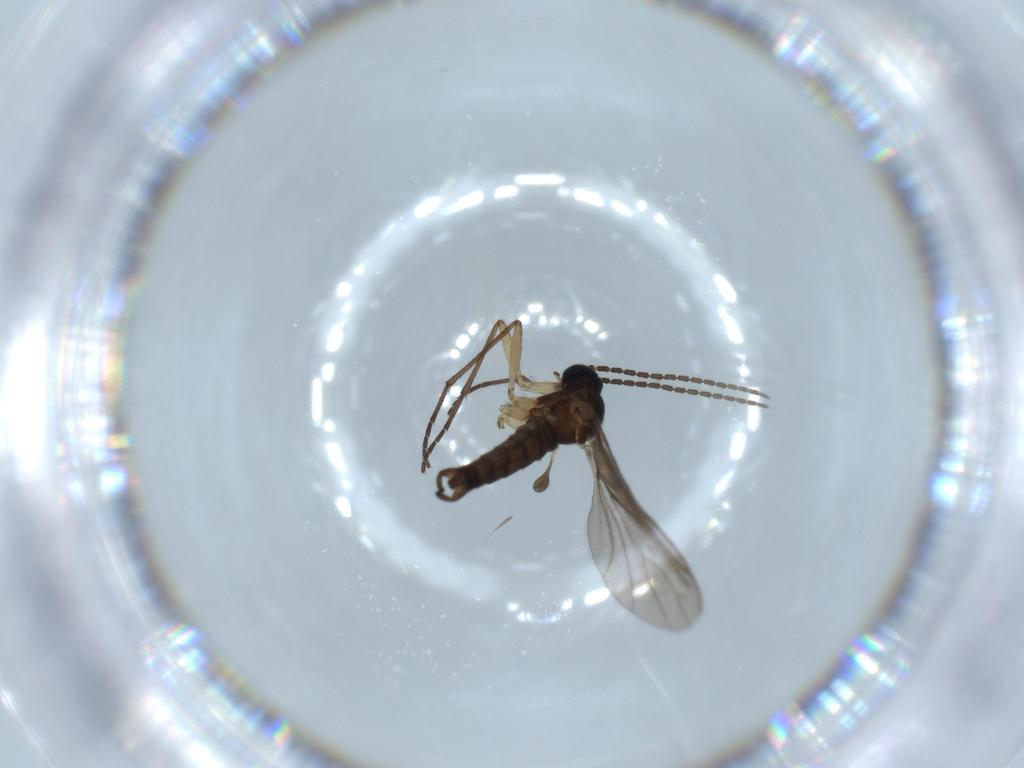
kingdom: Animalia
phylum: Arthropoda
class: Insecta
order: Diptera
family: Sciaridae
